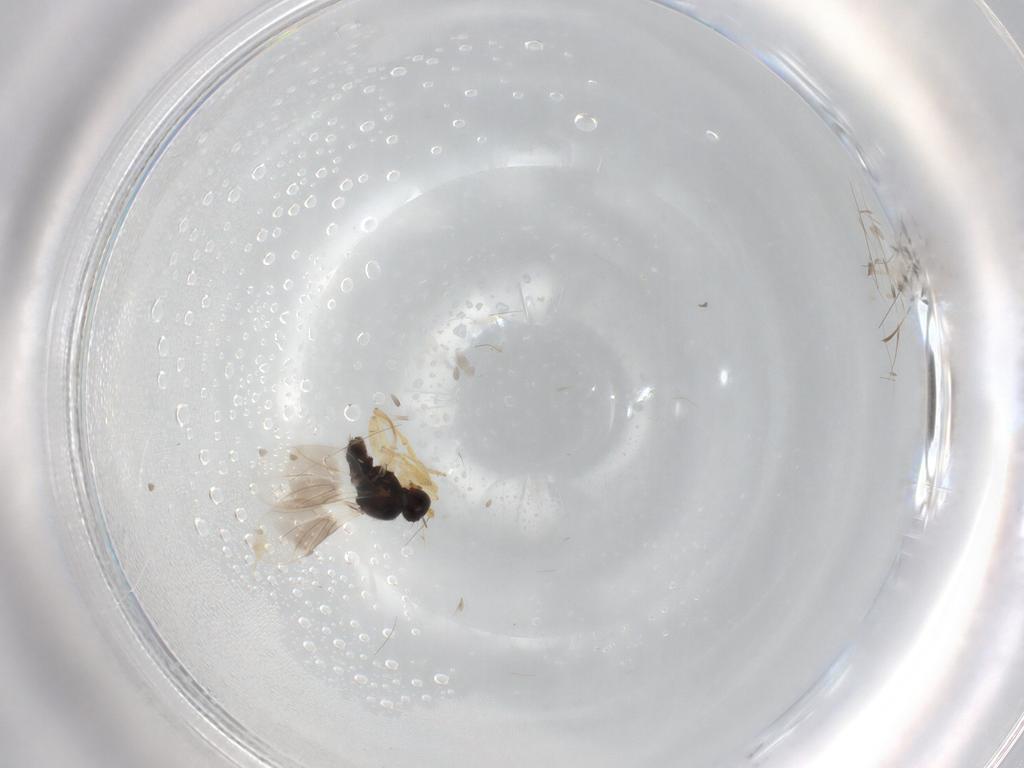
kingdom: Animalia
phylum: Arthropoda
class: Insecta
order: Diptera
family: Hybotidae
